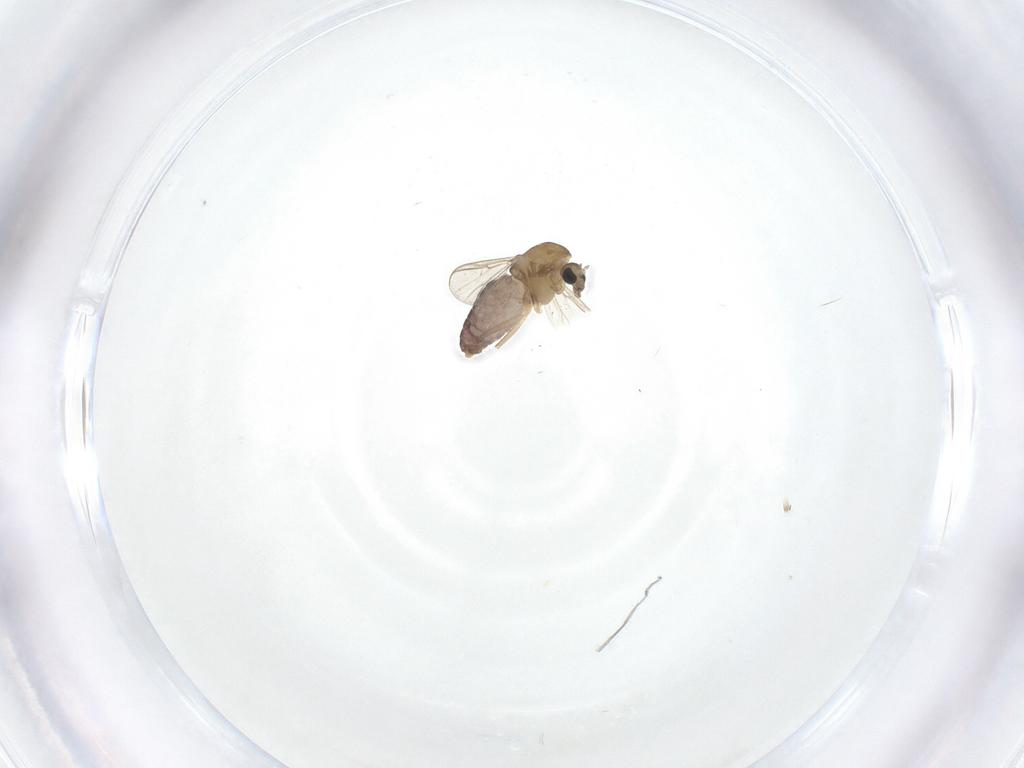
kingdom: Animalia
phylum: Arthropoda
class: Insecta
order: Diptera
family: Chironomidae
